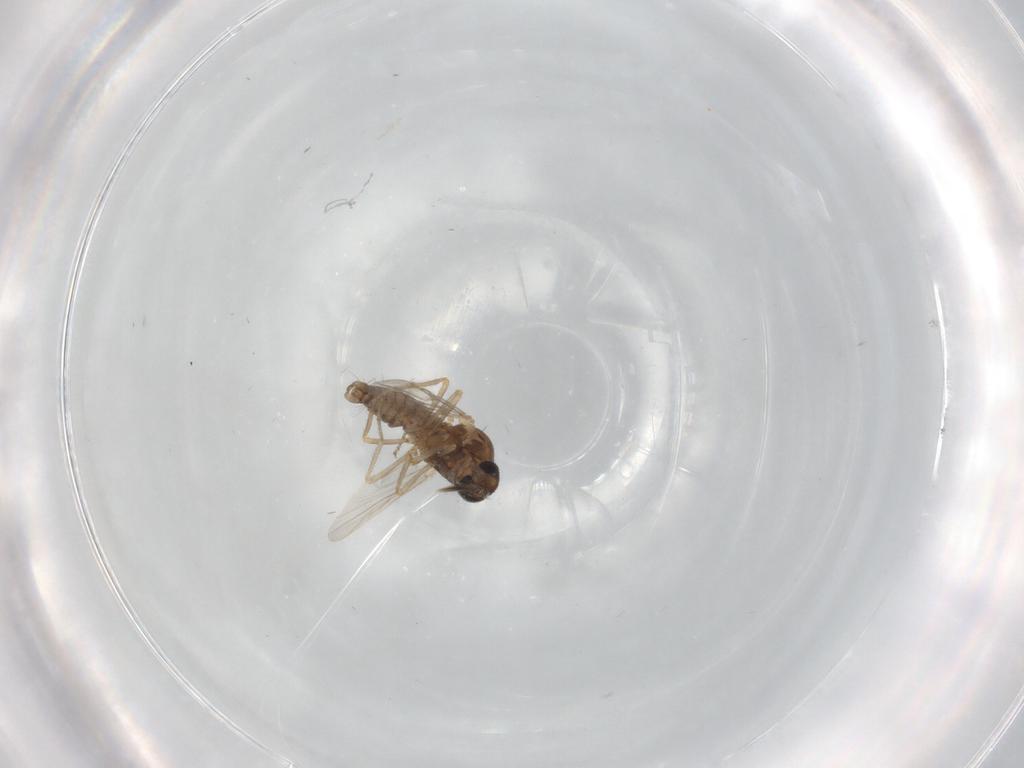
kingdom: Animalia
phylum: Arthropoda
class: Insecta
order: Diptera
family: Ceratopogonidae
